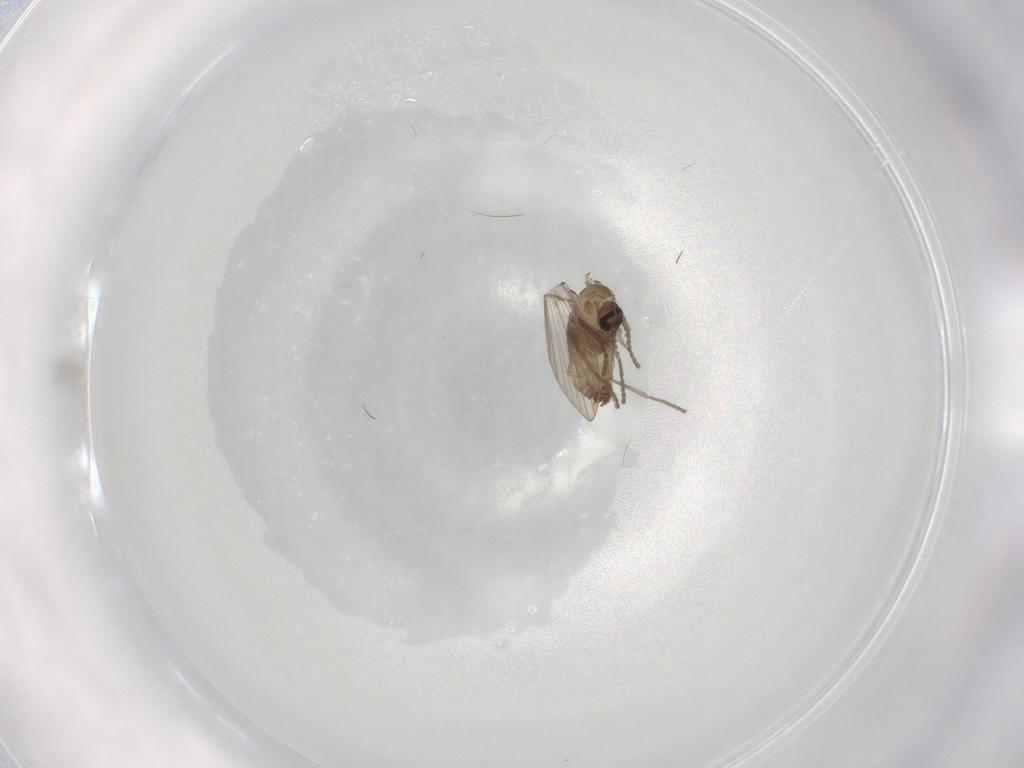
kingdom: Animalia
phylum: Arthropoda
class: Insecta
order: Diptera
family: Psychodidae
